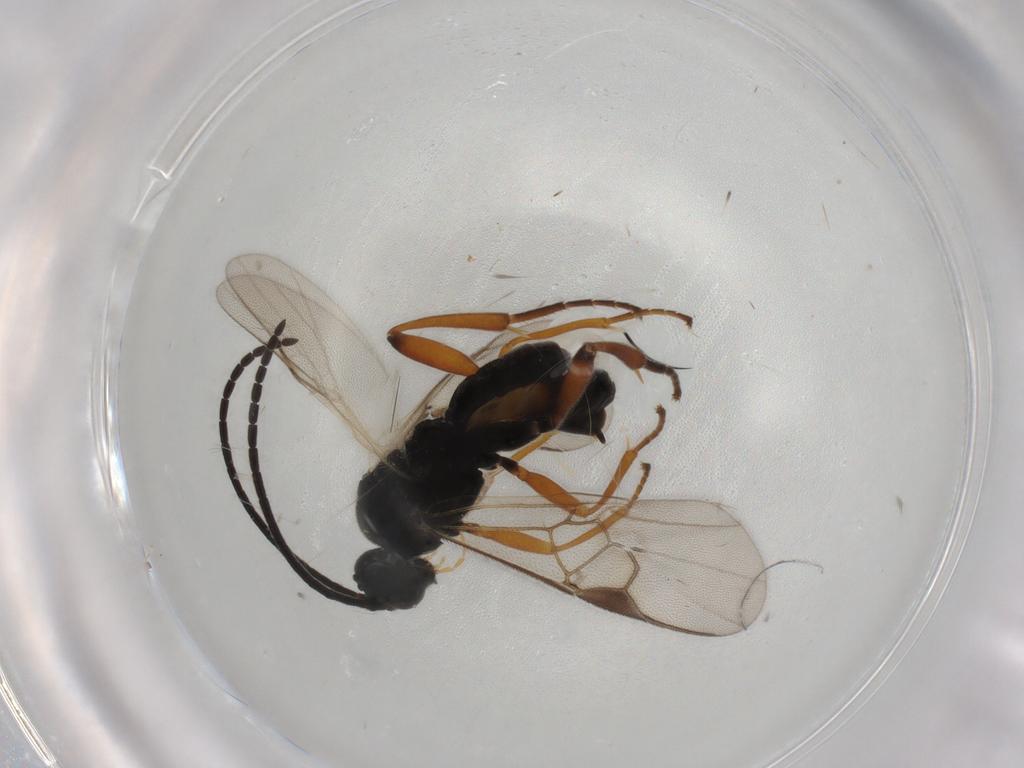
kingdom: Animalia
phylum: Arthropoda
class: Insecta
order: Hymenoptera
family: Braconidae
